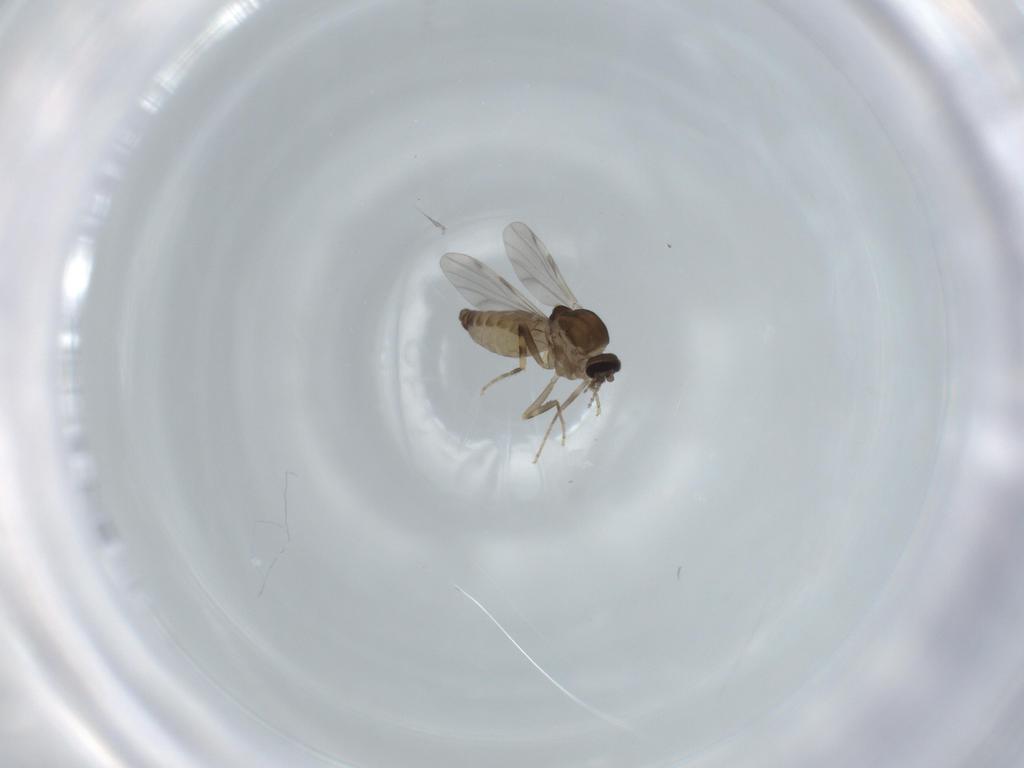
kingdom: Animalia
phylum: Arthropoda
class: Insecta
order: Diptera
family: Ceratopogonidae
